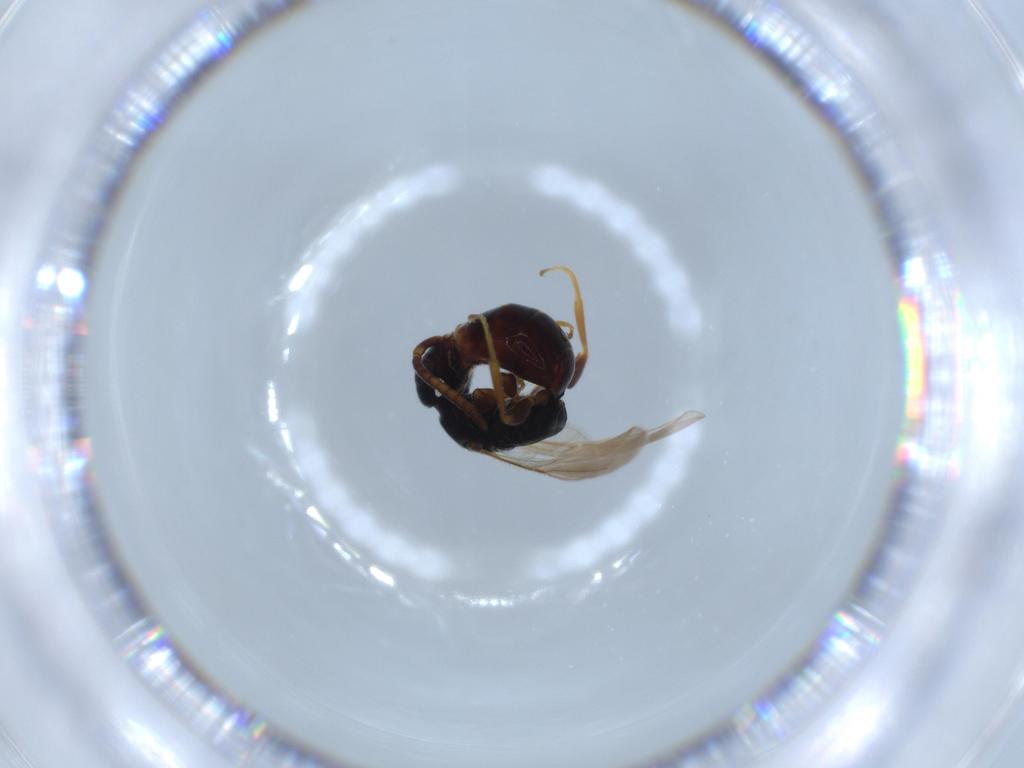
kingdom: Animalia
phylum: Arthropoda
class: Insecta
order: Hymenoptera
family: Bethylidae
